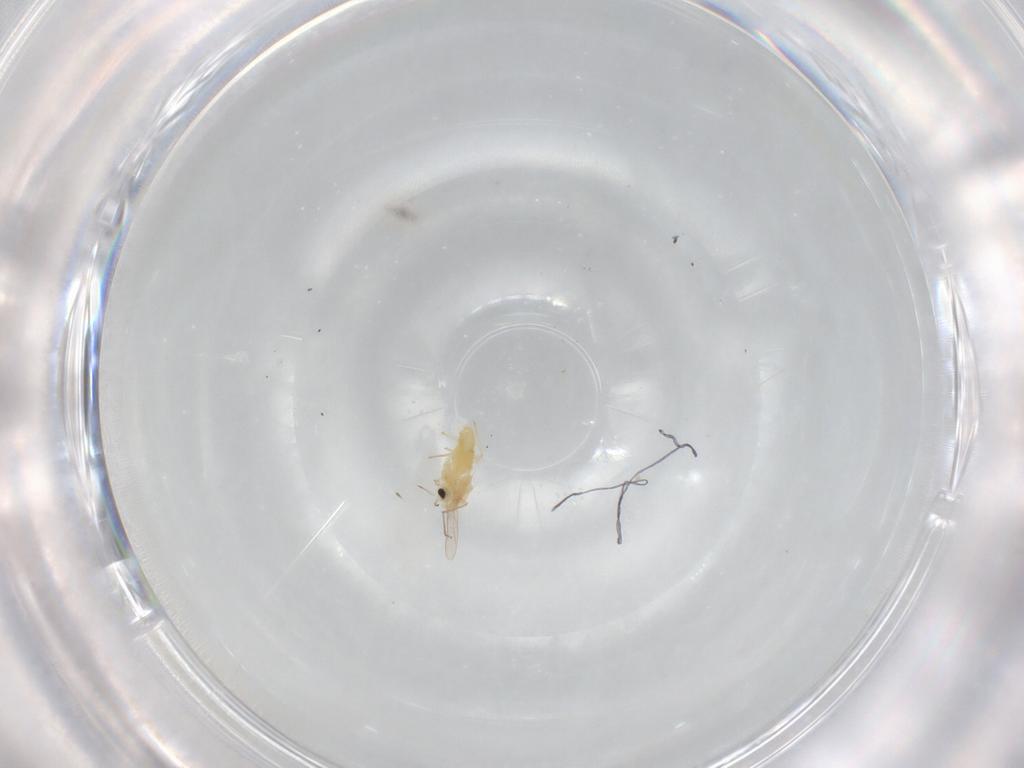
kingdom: Animalia
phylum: Arthropoda
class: Insecta
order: Diptera
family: Chironomidae
